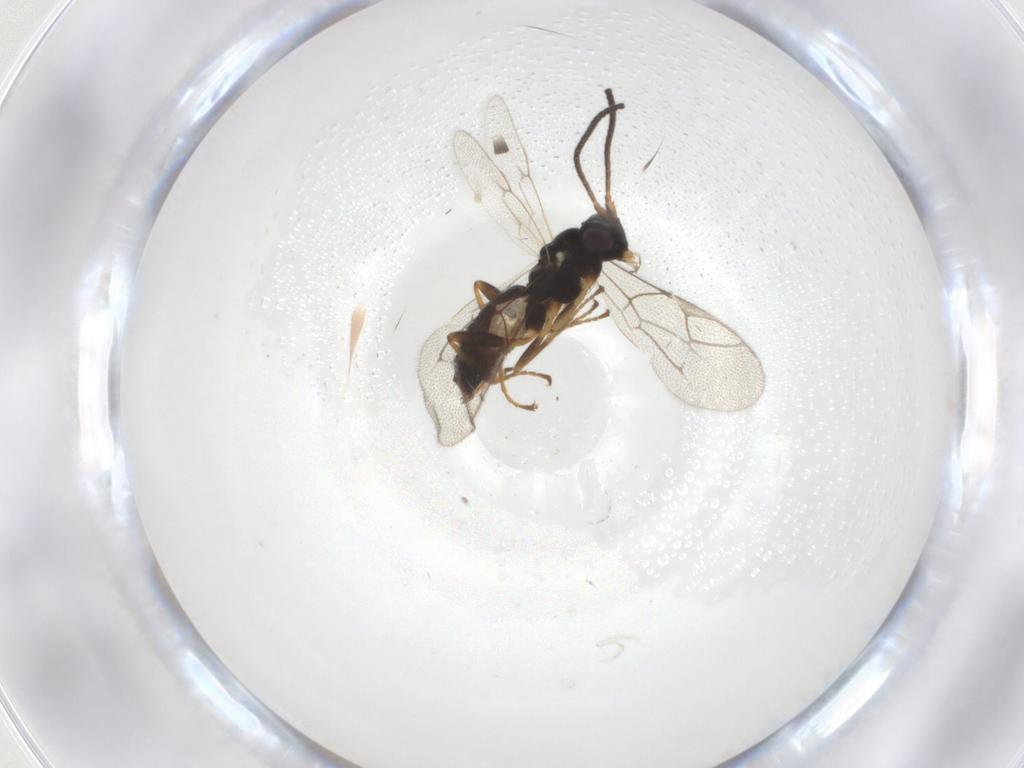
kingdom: Animalia
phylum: Arthropoda
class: Insecta
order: Hymenoptera
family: Ichneumonidae
